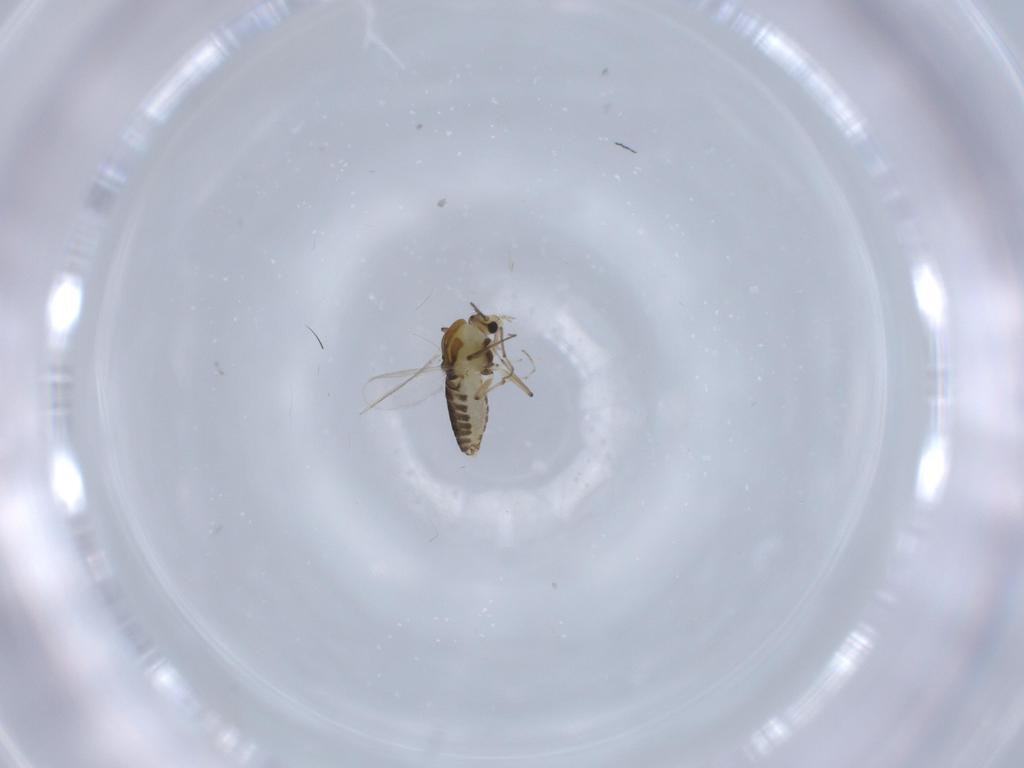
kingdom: Animalia
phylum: Arthropoda
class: Insecta
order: Diptera
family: Chironomidae
